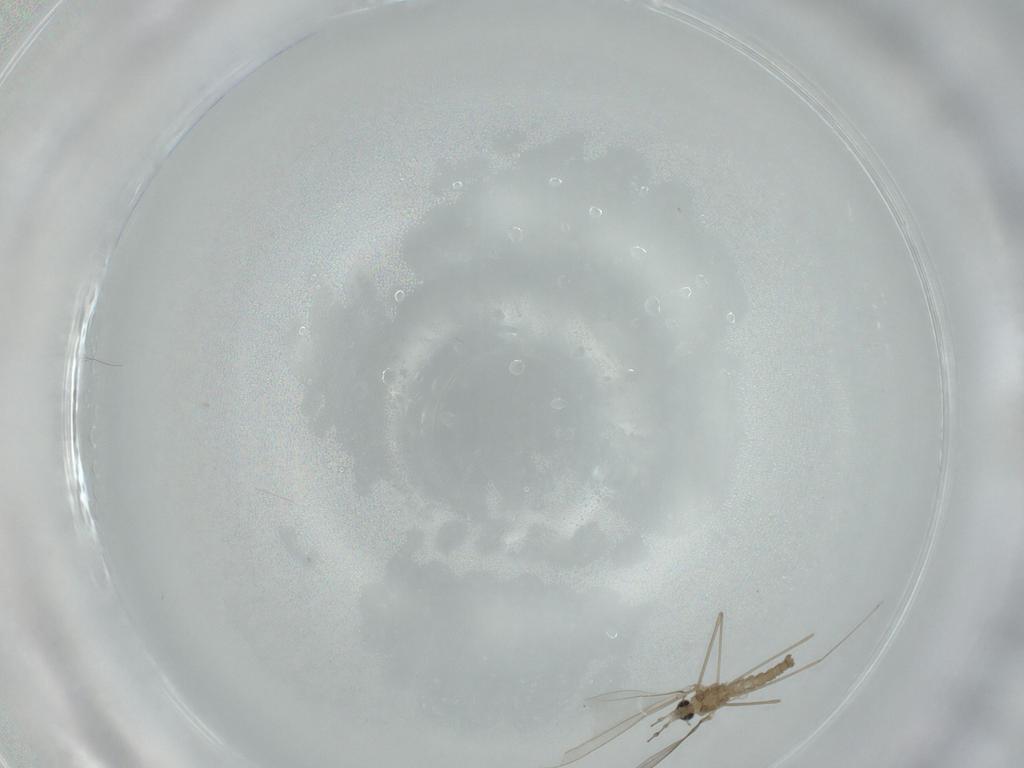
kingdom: Animalia
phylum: Arthropoda
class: Insecta
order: Diptera
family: Cecidomyiidae
